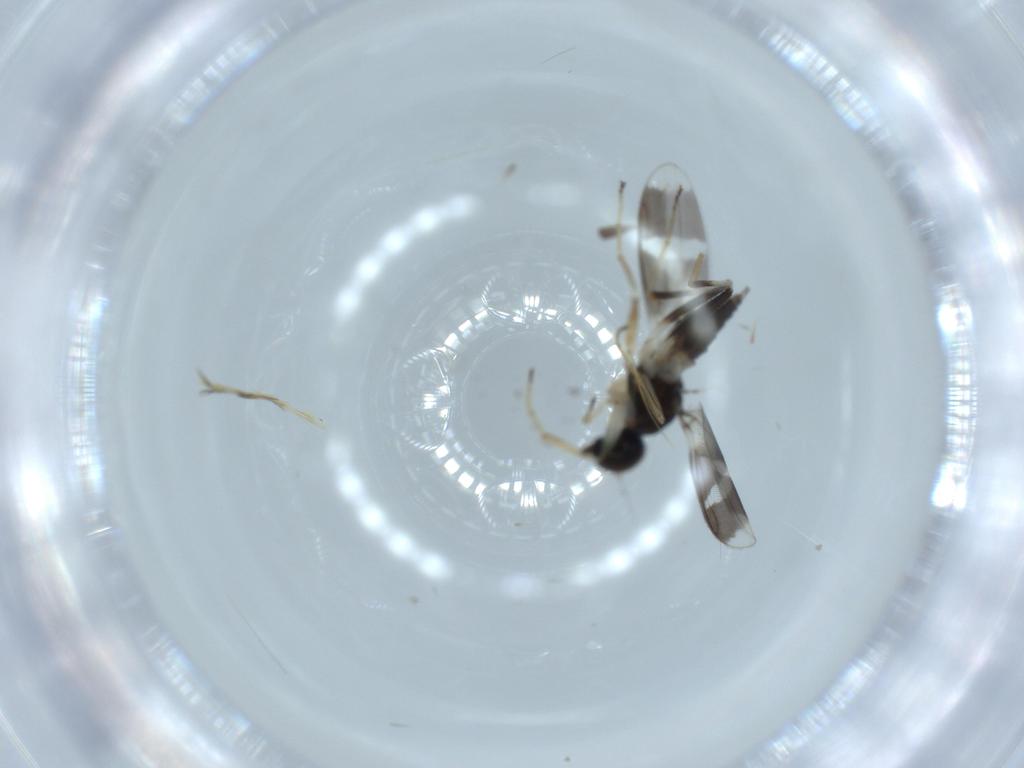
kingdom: Animalia
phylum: Arthropoda
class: Insecta
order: Diptera
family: Hybotidae
